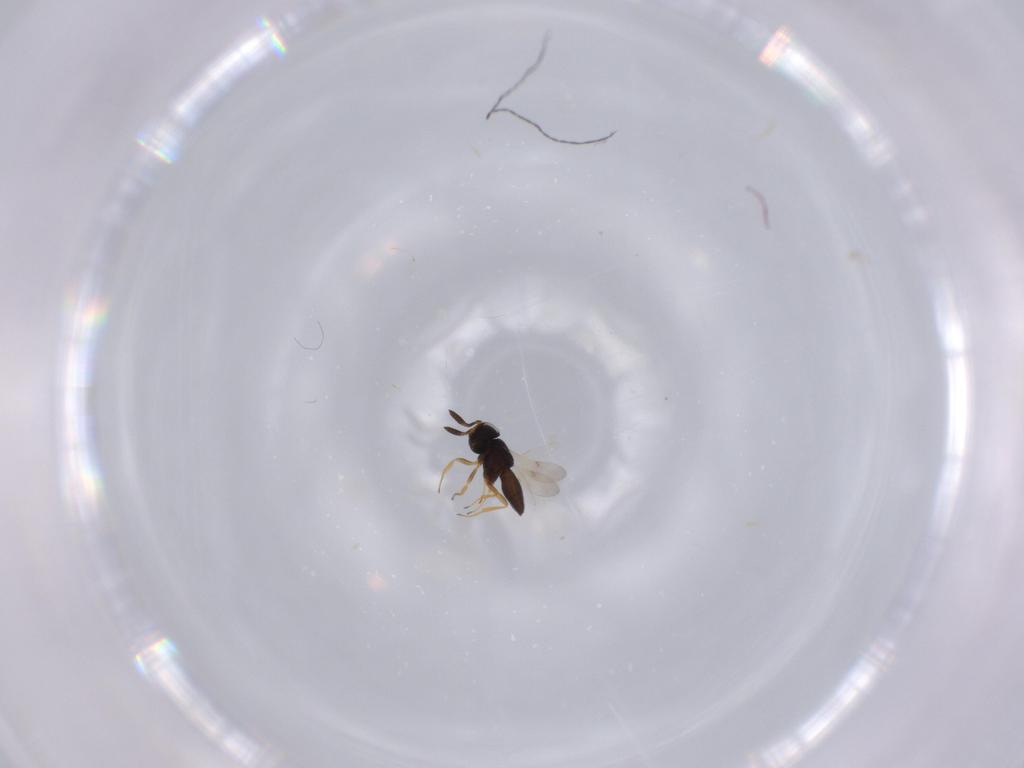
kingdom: Animalia
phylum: Arthropoda
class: Insecta
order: Hymenoptera
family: Scelionidae
